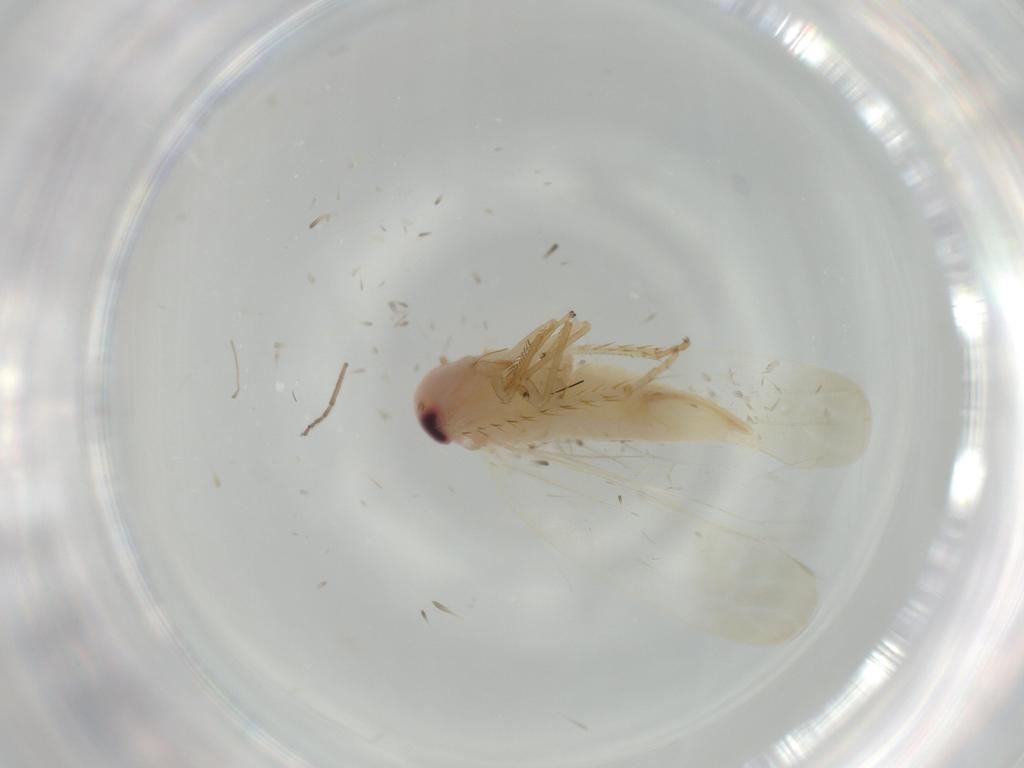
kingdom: Animalia
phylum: Arthropoda
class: Insecta
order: Hemiptera
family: Cicadellidae
